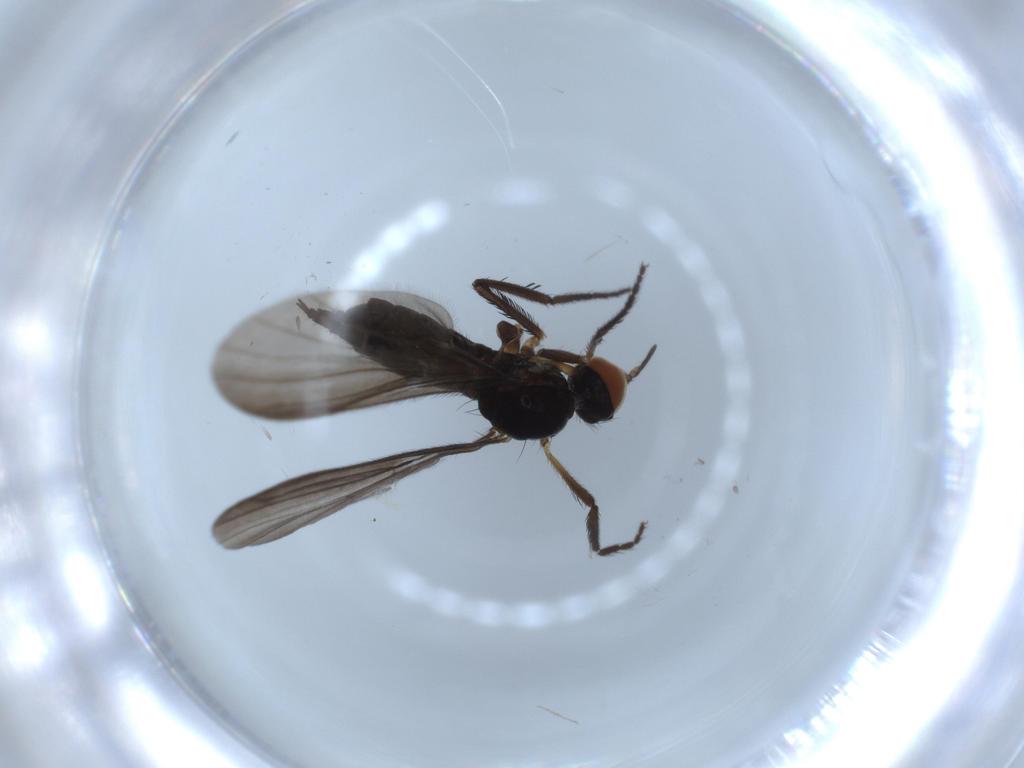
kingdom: Animalia
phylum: Arthropoda
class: Insecta
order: Diptera
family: Empididae
